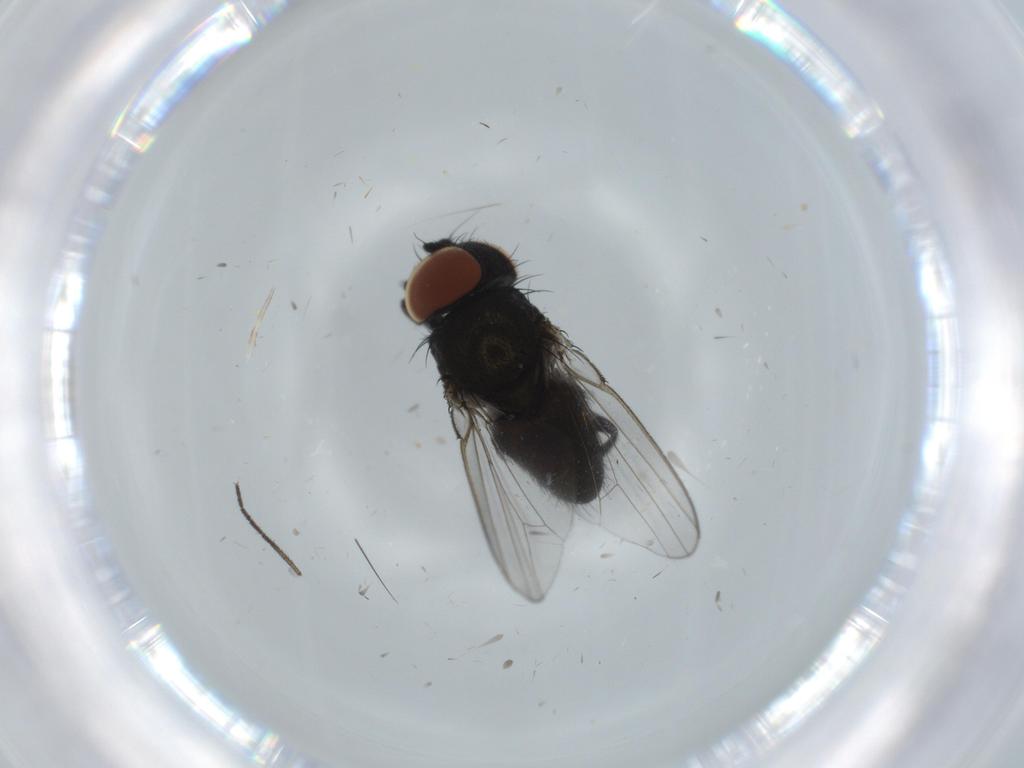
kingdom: Animalia
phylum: Arthropoda
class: Insecta
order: Diptera
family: Milichiidae
